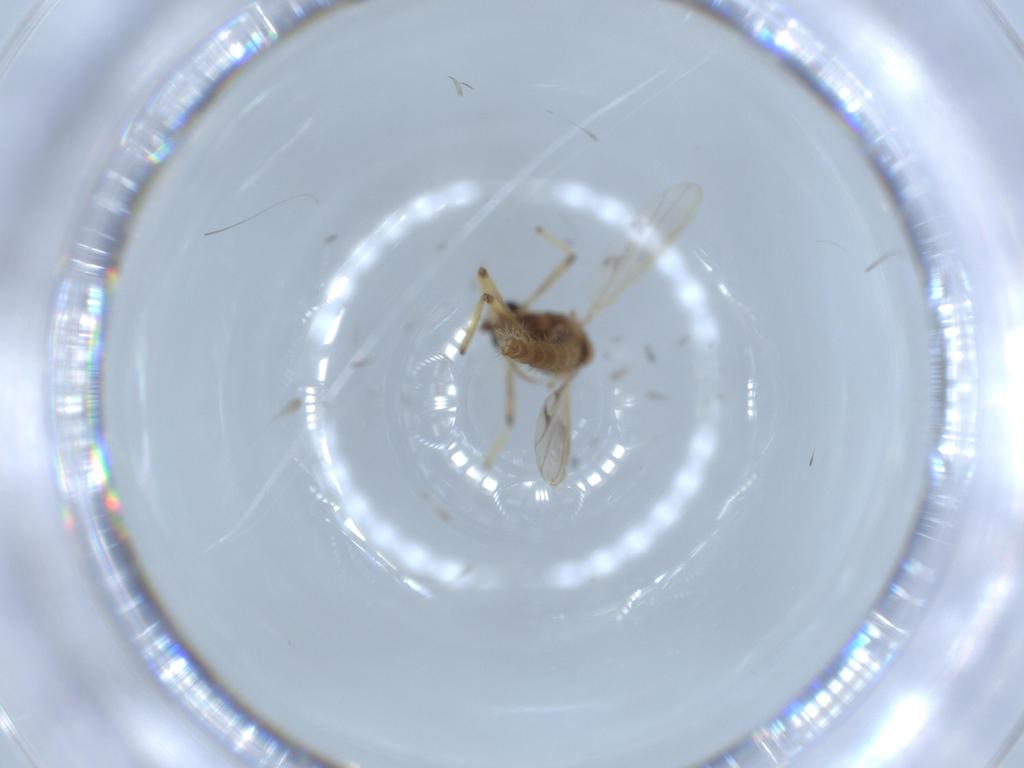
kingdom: Animalia
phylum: Arthropoda
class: Insecta
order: Diptera
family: Chironomidae
